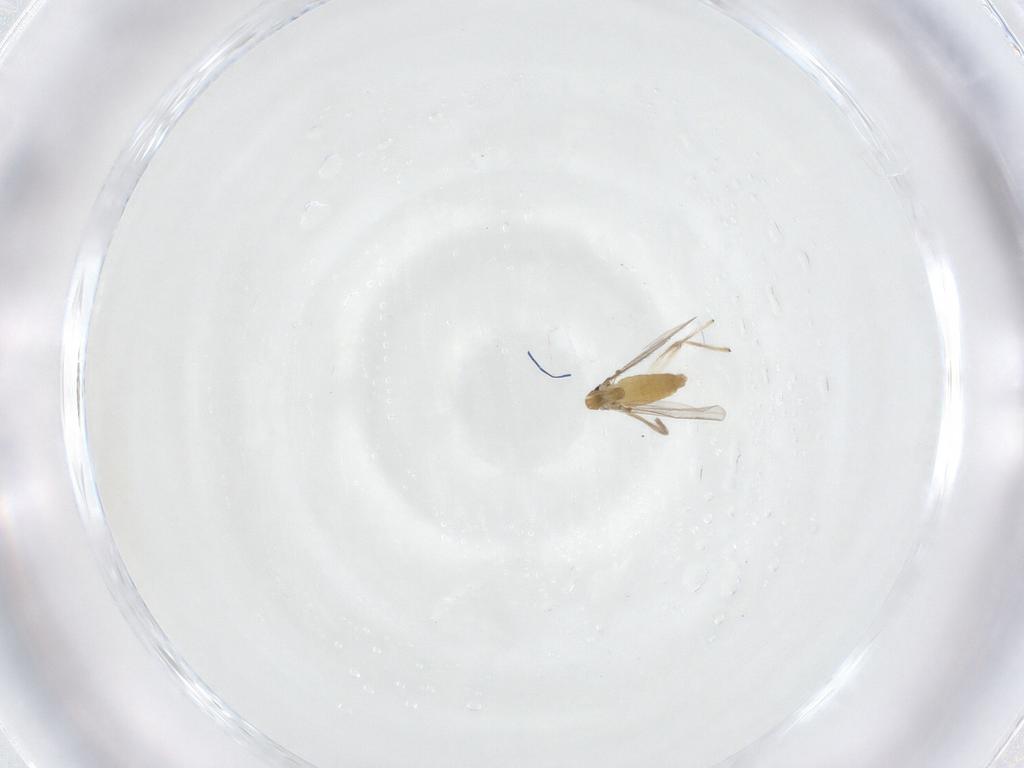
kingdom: Animalia
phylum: Arthropoda
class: Insecta
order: Diptera
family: Chironomidae
